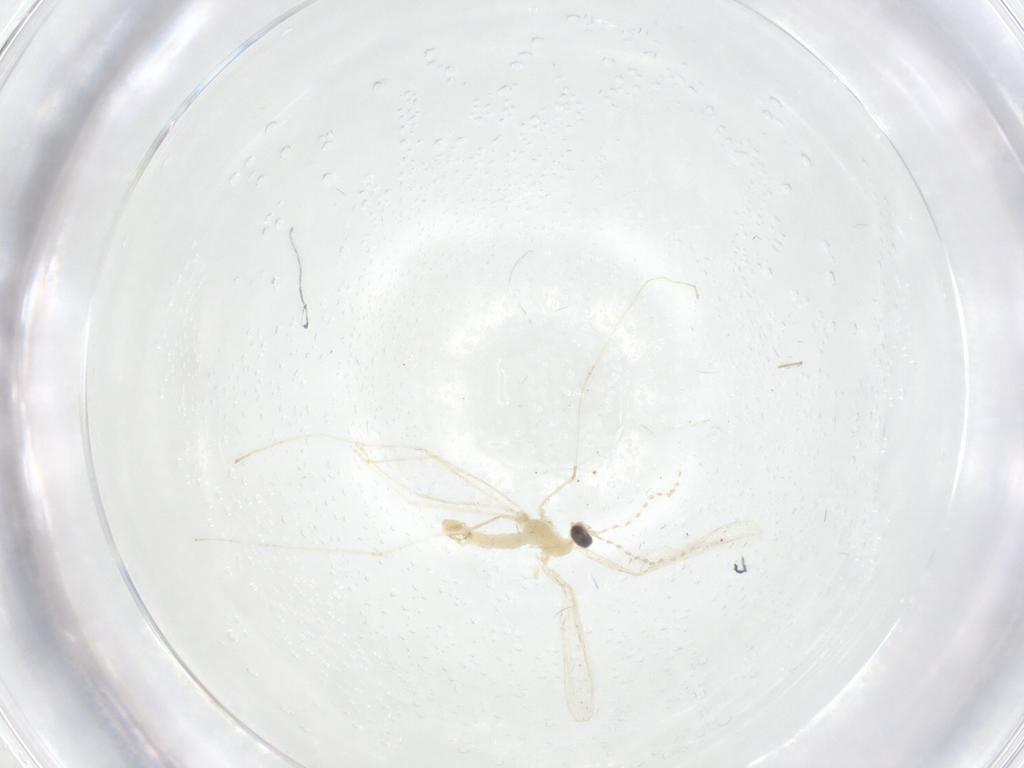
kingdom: Animalia
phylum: Arthropoda
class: Insecta
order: Diptera
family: Cecidomyiidae
